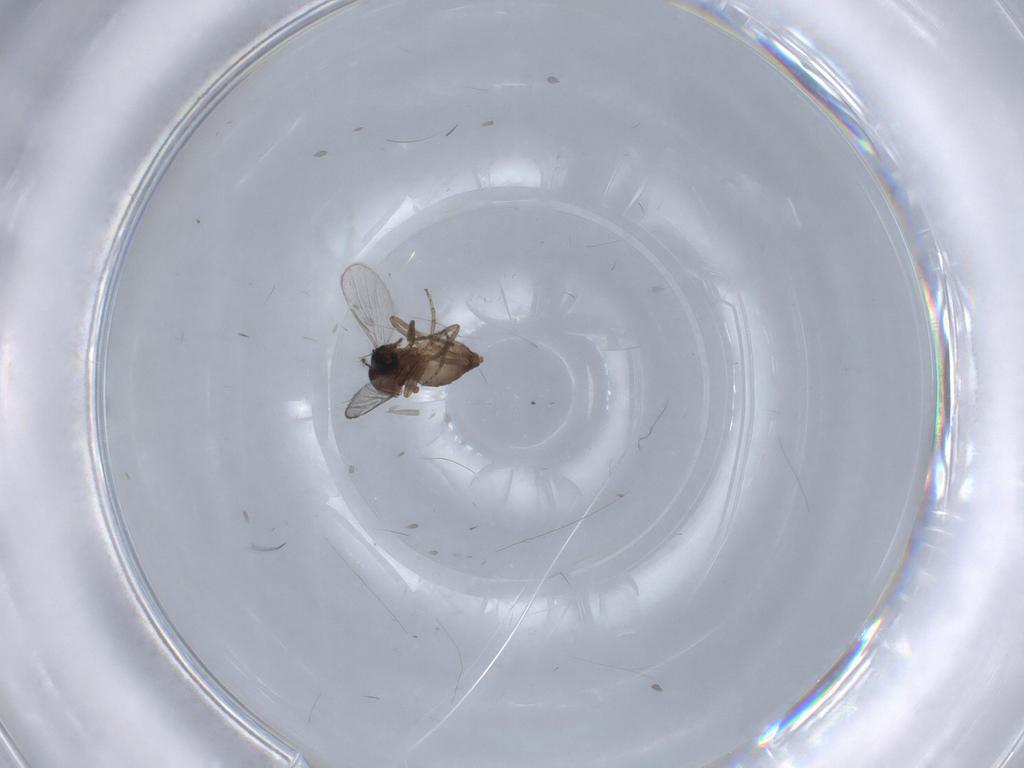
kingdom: Animalia
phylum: Arthropoda
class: Insecta
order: Diptera
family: Ceratopogonidae
